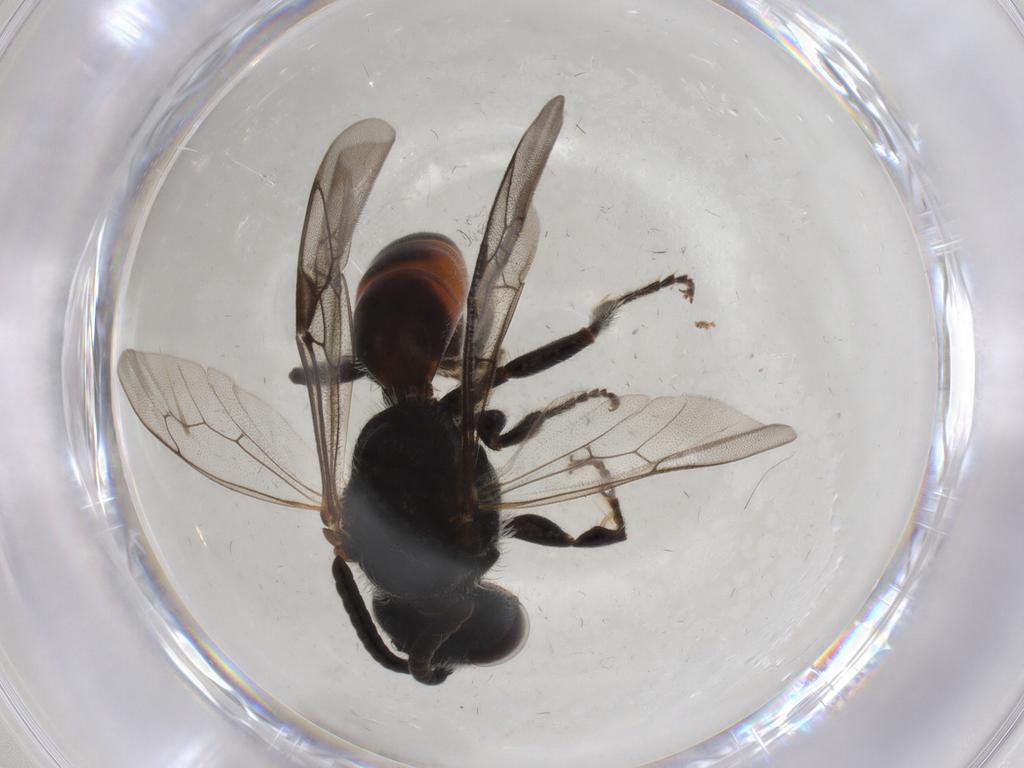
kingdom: Animalia
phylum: Arthropoda
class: Insecta
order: Hymenoptera
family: Halictidae
